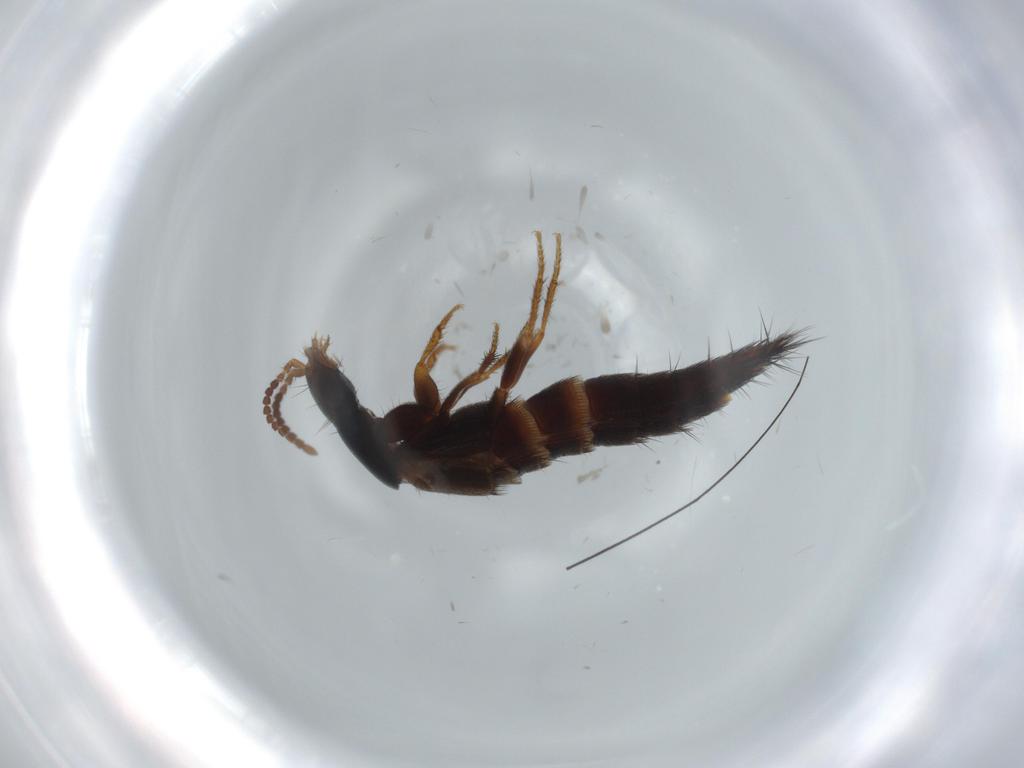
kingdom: Animalia
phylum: Arthropoda
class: Insecta
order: Coleoptera
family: Staphylinidae
